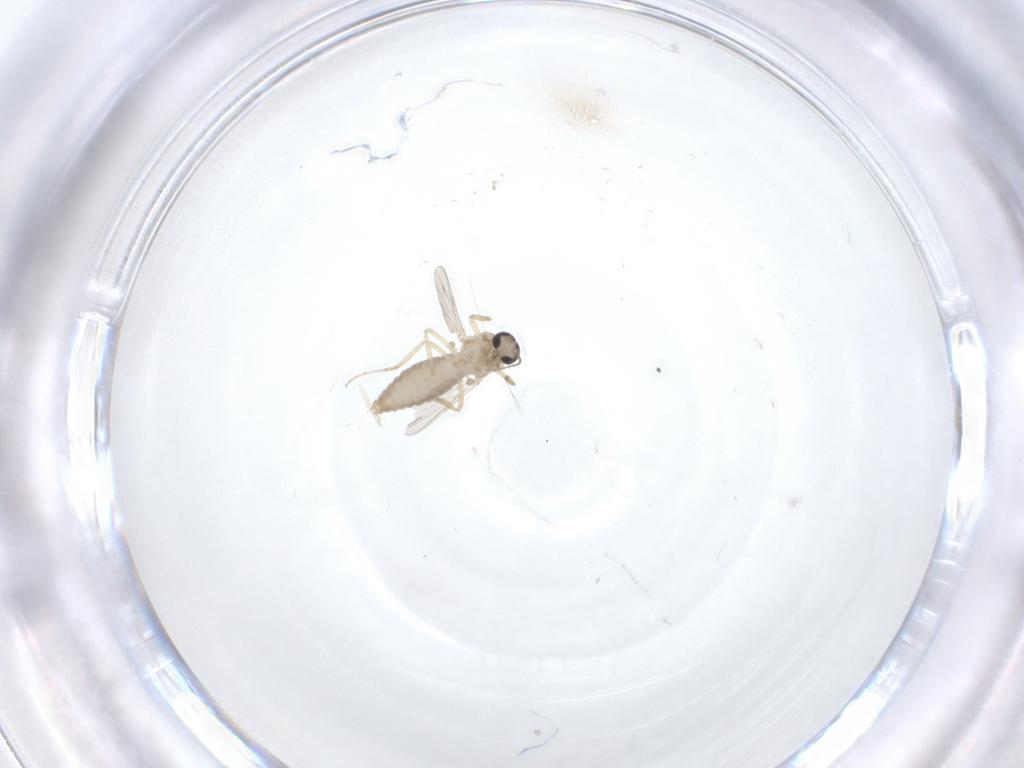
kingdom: Animalia
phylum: Arthropoda
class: Insecta
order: Diptera
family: Ceratopogonidae
